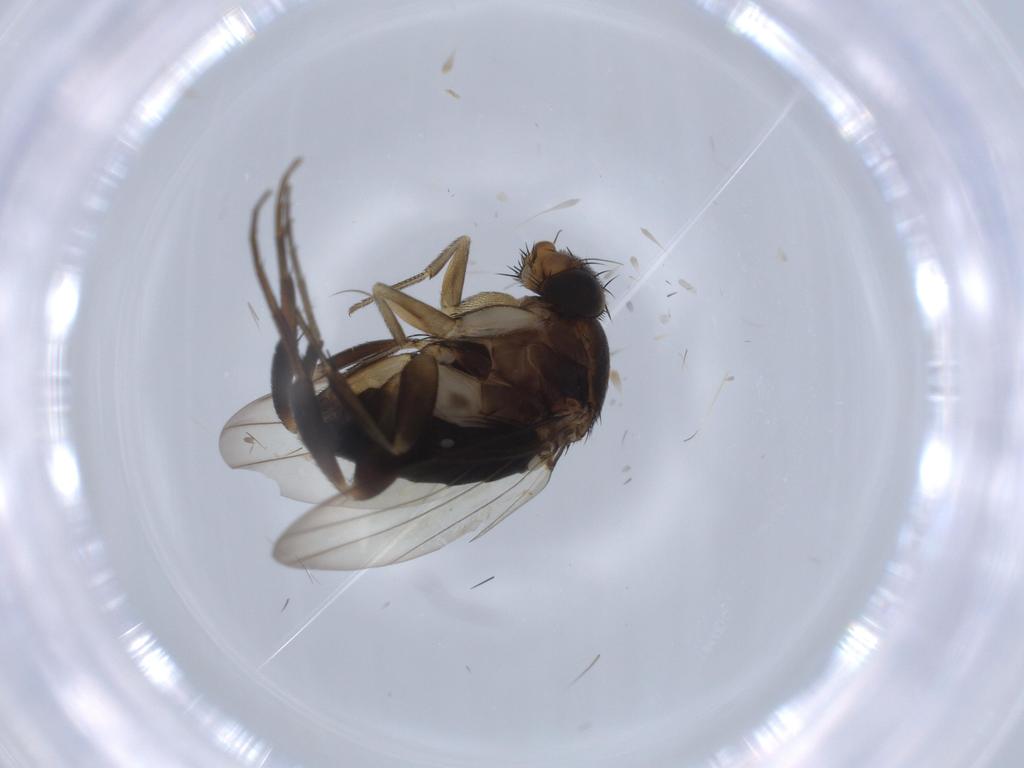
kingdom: Animalia
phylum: Arthropoda
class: Insecta
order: Diptera
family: Phoridae
